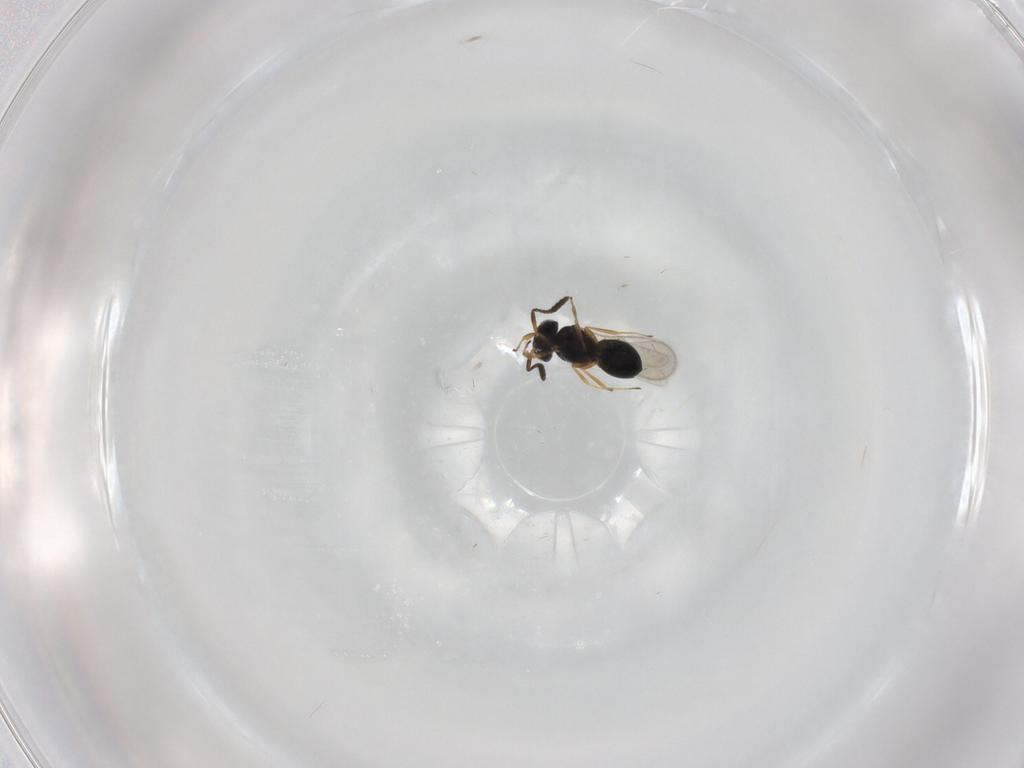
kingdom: Animalia
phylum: Arthropoda
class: Insecta
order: Hymenoptera
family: Scelionidae
